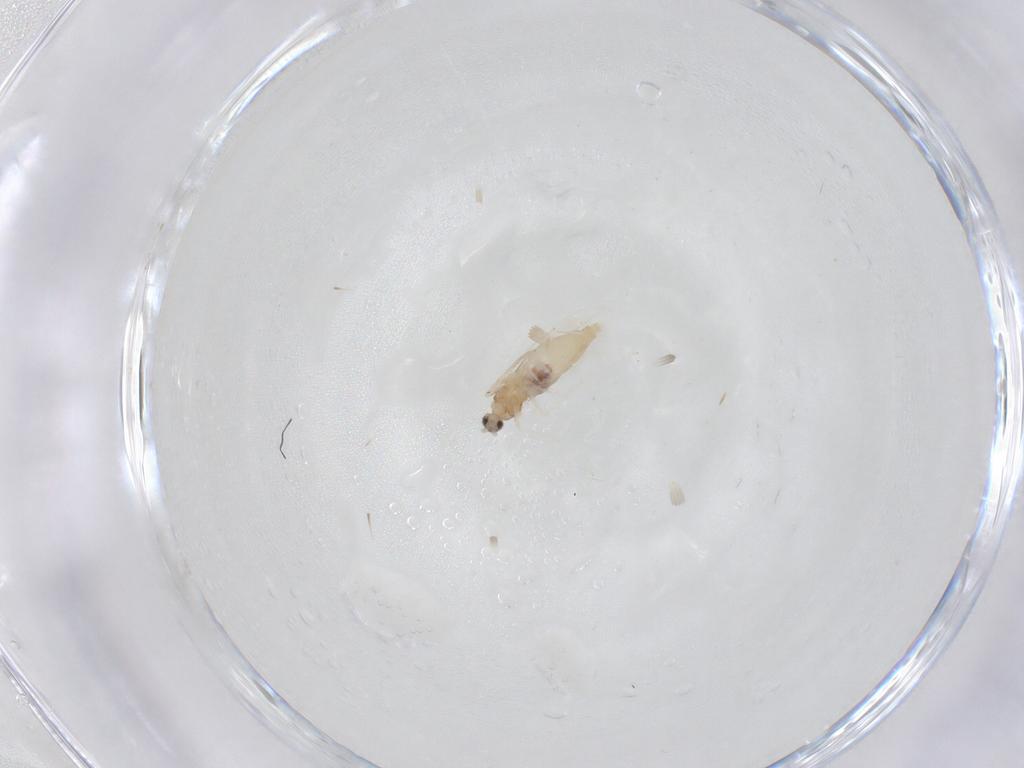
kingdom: Animalia
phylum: Arthropoda
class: Insecta
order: Diptera
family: Cecidomyiidae
